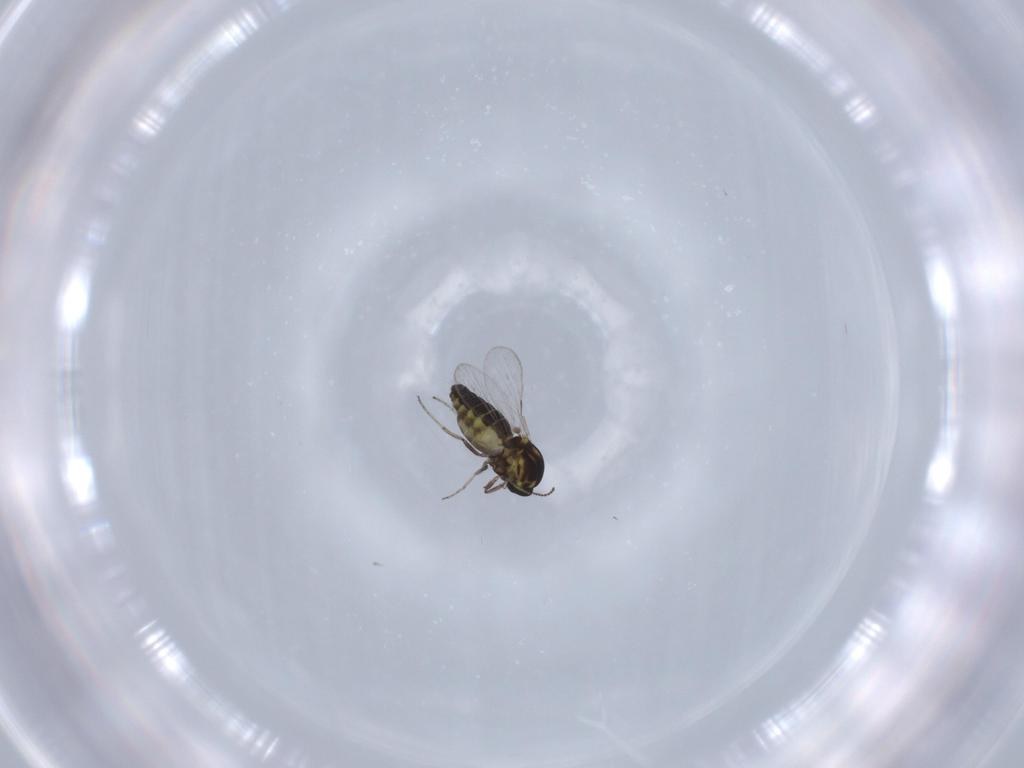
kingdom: Animalia
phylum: Arthropoda
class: Insecta
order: Diptera
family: Ceratopogonidae
